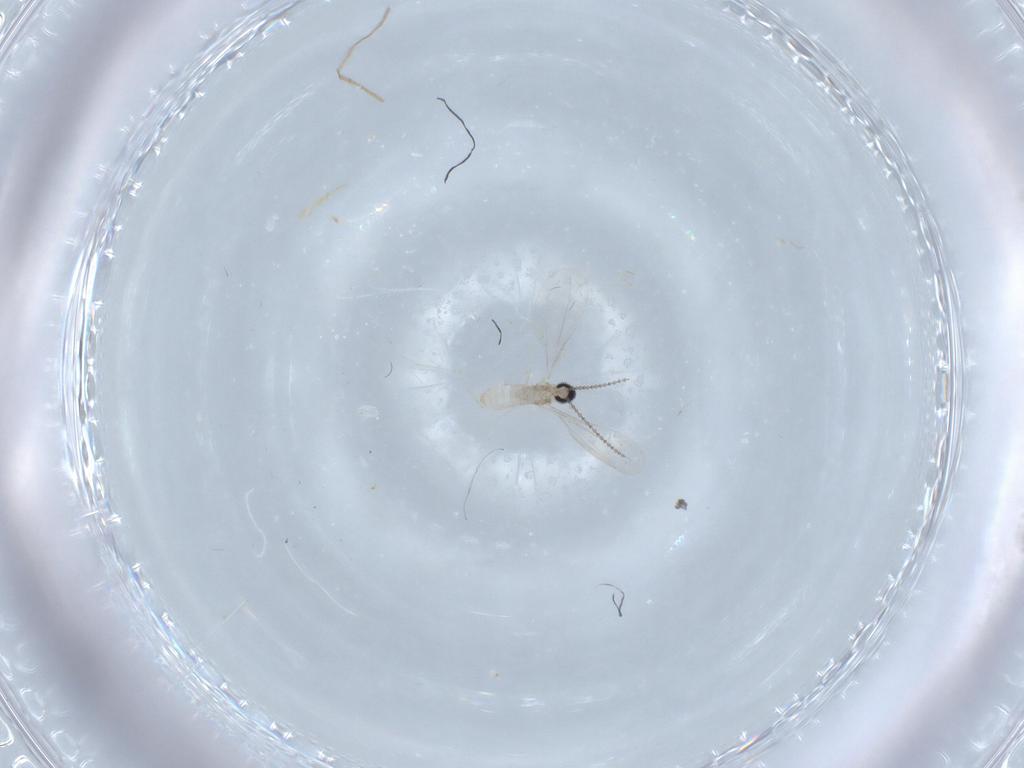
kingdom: Animalia
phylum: Arthropoda
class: Insecta
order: Diptera
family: Cecidomyiidae
